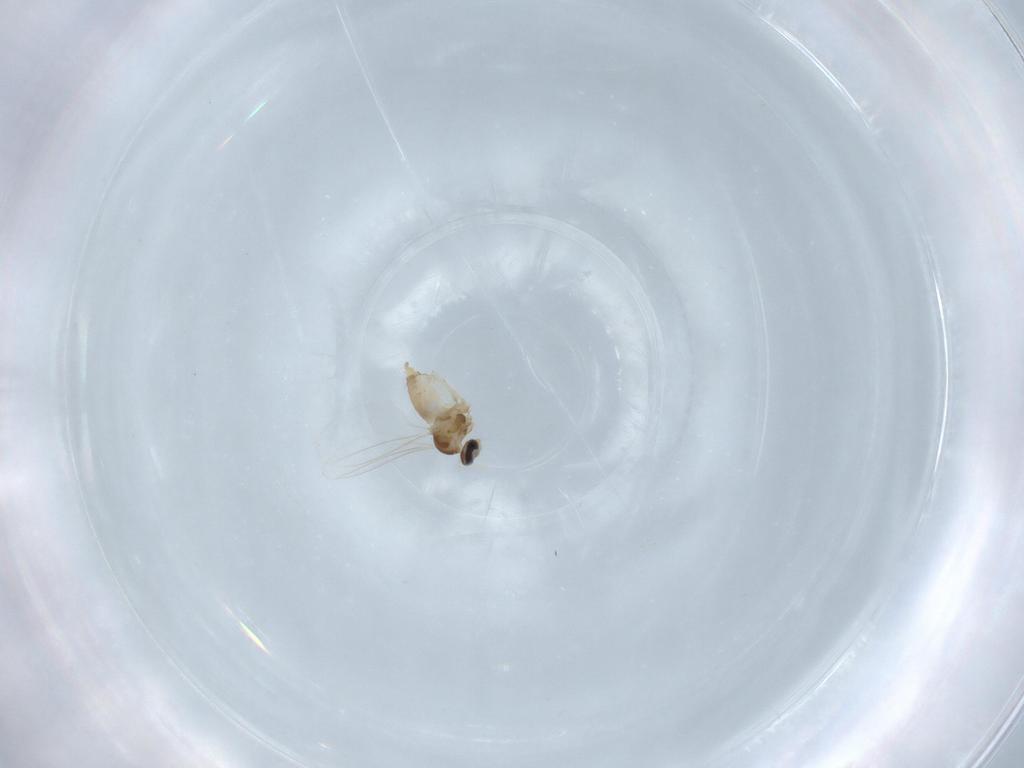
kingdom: Animalia
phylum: Arthropoda
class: Insecta
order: Diptera
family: Cecidomyiidae
